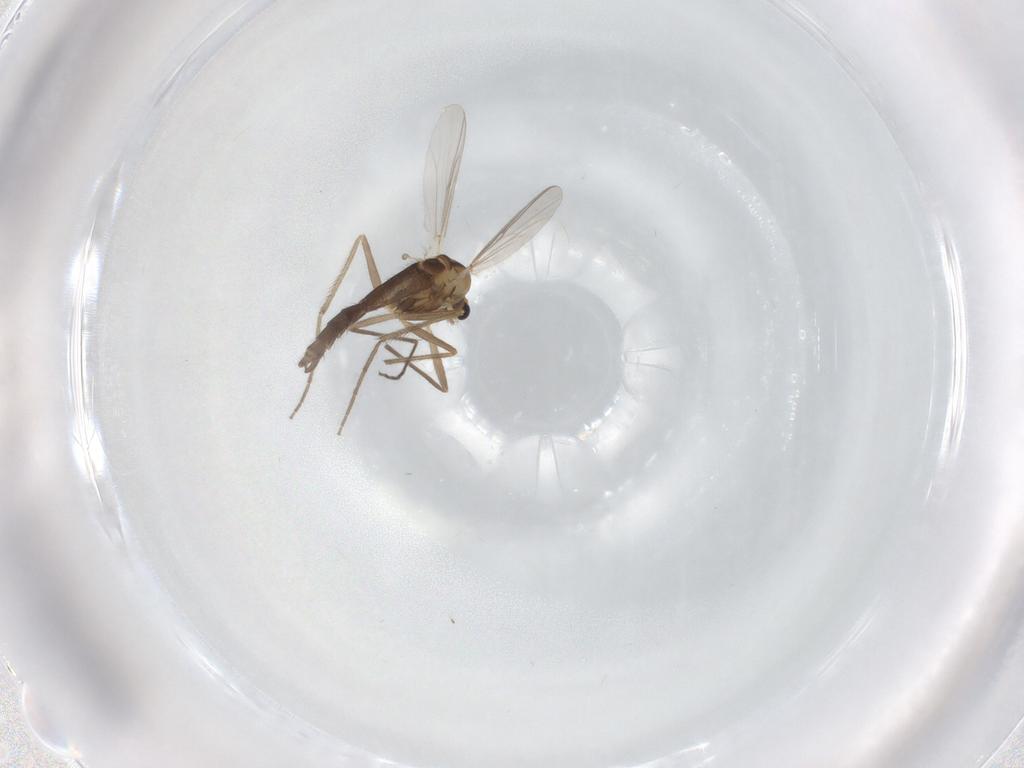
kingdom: Animalia
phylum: Arthropoda
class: Insecta
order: Diptera
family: Chironomidae
